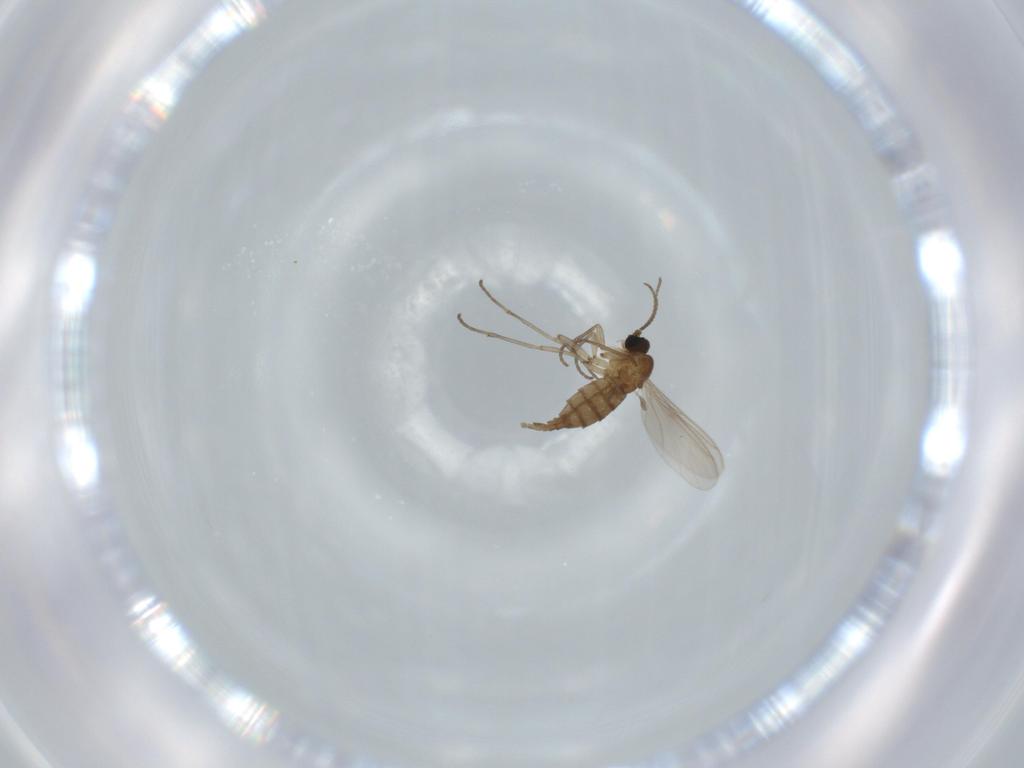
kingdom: Animalia
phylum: Arthropoda
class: Insecta
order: Diptera
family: Sciaridae
